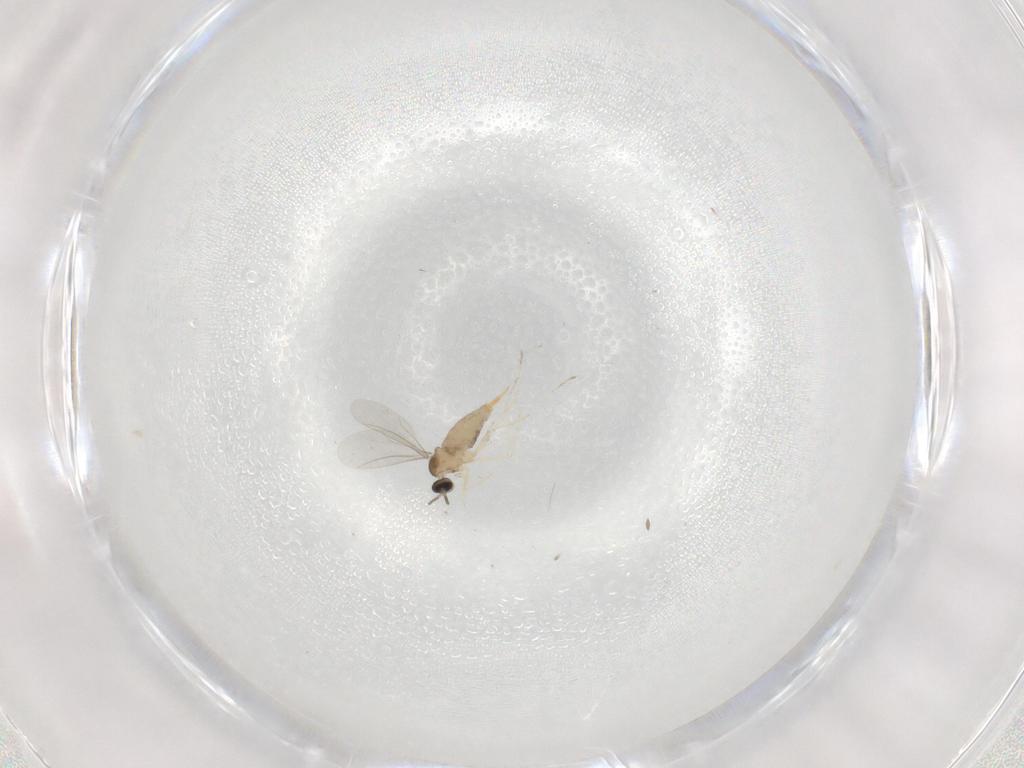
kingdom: Animalia
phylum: Arthropoda
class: Insecta
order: Diptera
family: Cecidomyiidae
